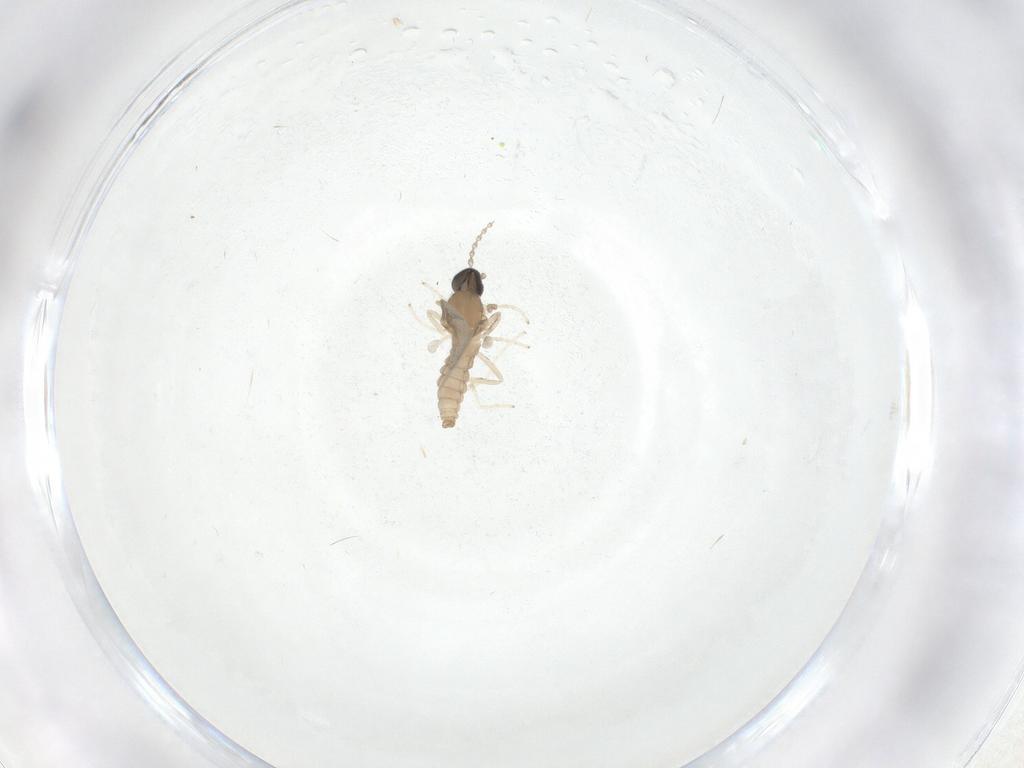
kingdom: Animalia
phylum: Arthropoda
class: Insecta
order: Diptera
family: Cecidomyiidae
